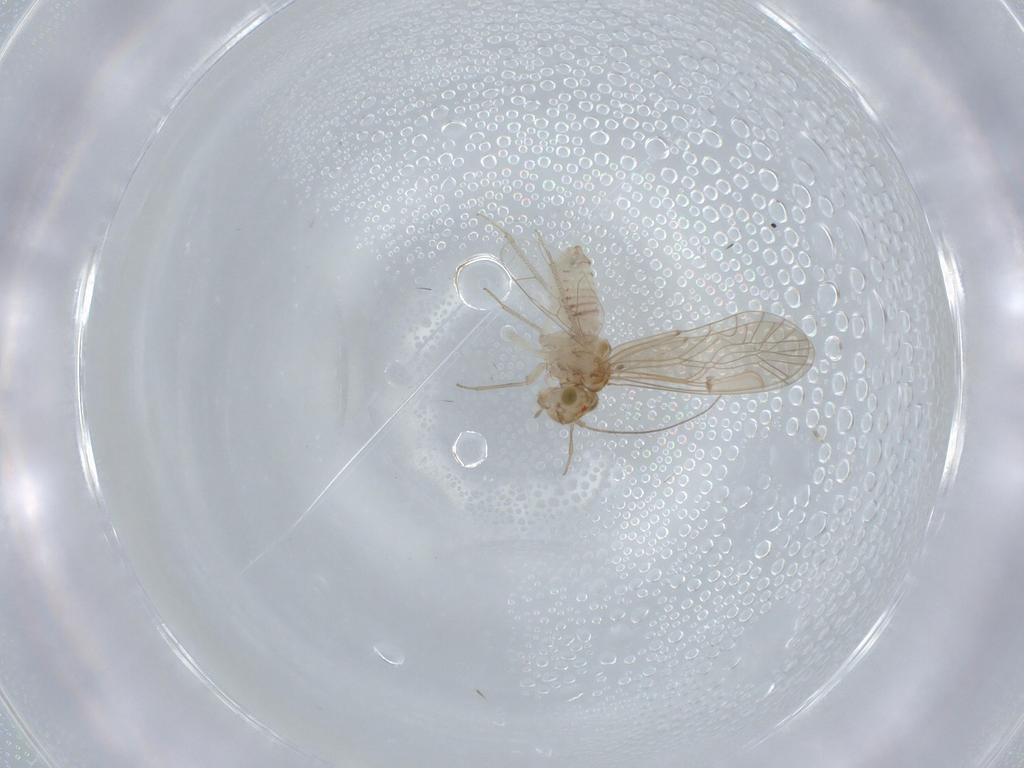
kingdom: Animalia
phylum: Arthropoda
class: Insecta
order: Psocodea
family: Lachesillidae
